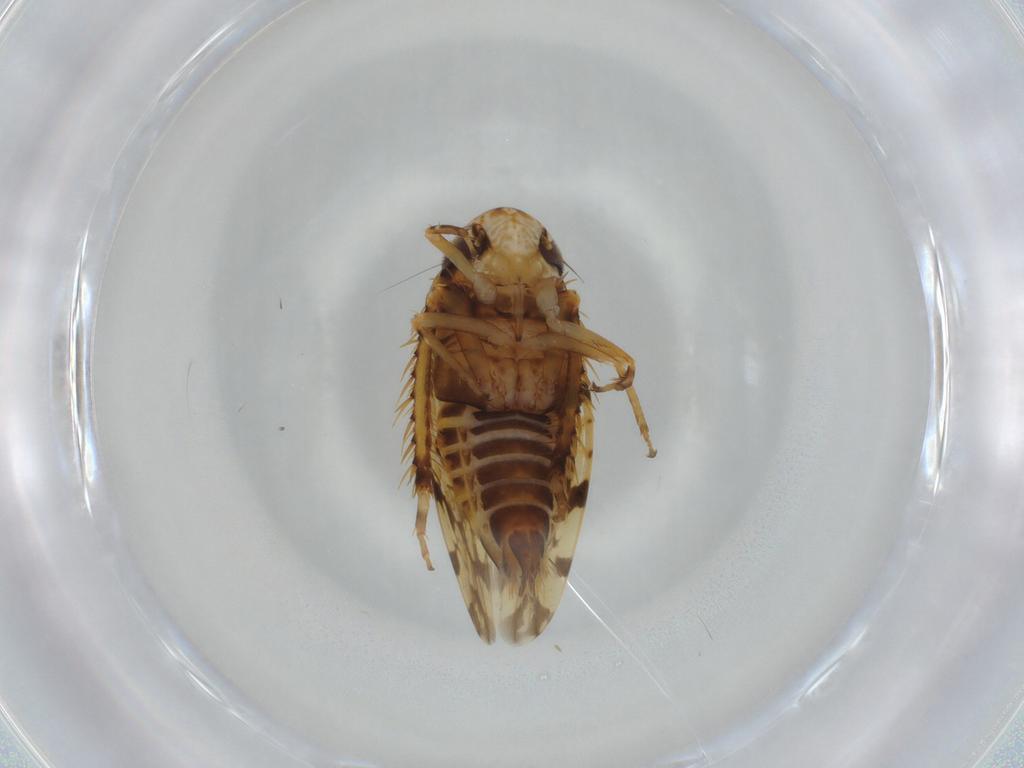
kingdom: Animalia
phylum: Arthropoda
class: Insecta
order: Hemiptera
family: Cicadellidae
